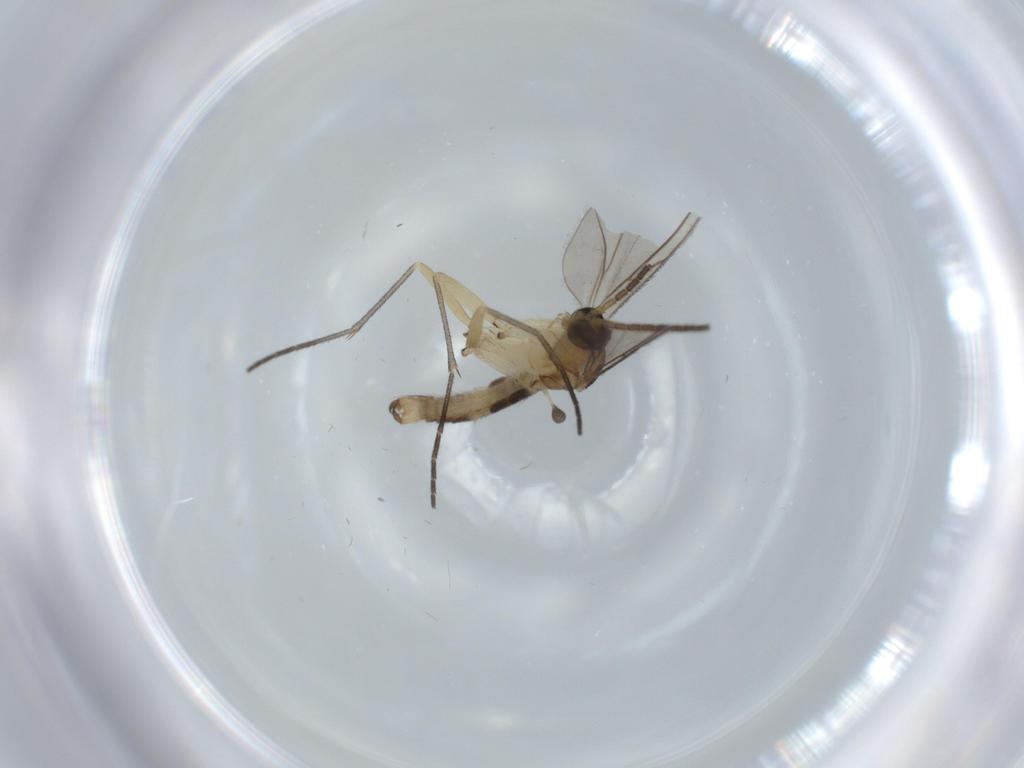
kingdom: Animalia
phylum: Arthropoda
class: Insecta
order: Diptera
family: Sciaridae
